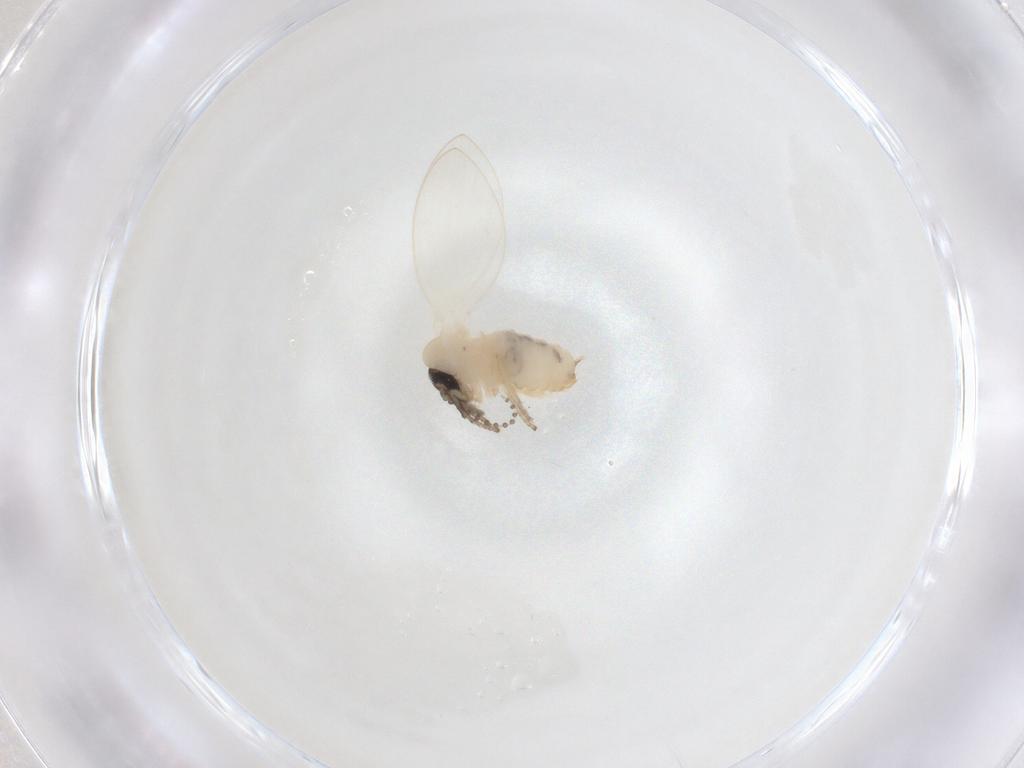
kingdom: Animalia
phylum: Arthropoda
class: Insecta
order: Diptera
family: Psychodidae
